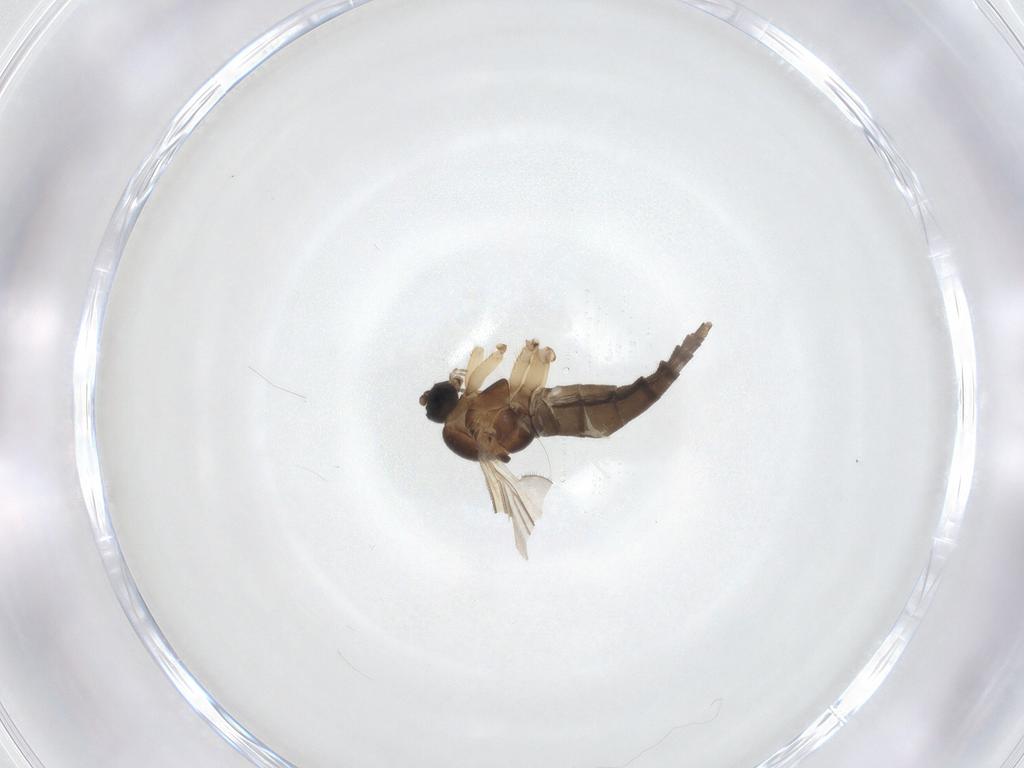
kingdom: Animalia
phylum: Arthropoda
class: Insecta
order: Diptera
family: Sciaridae
